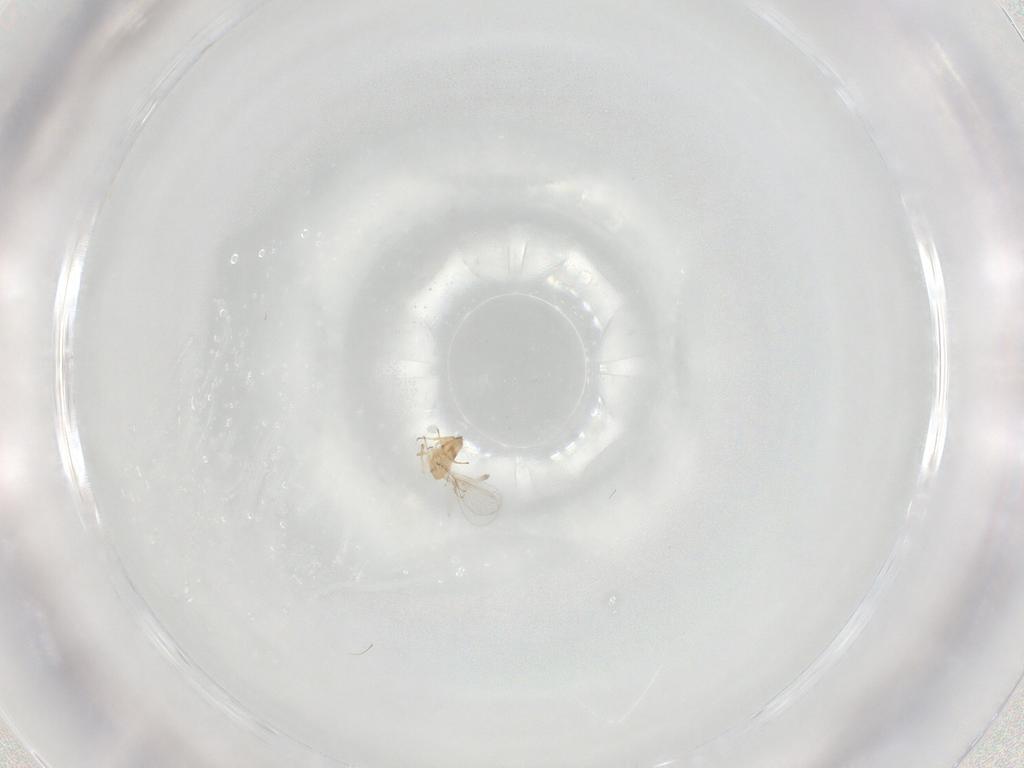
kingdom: Animalia
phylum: Arthropoda
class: Insecta
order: Hymenoptera
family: Trichogrammatidae
